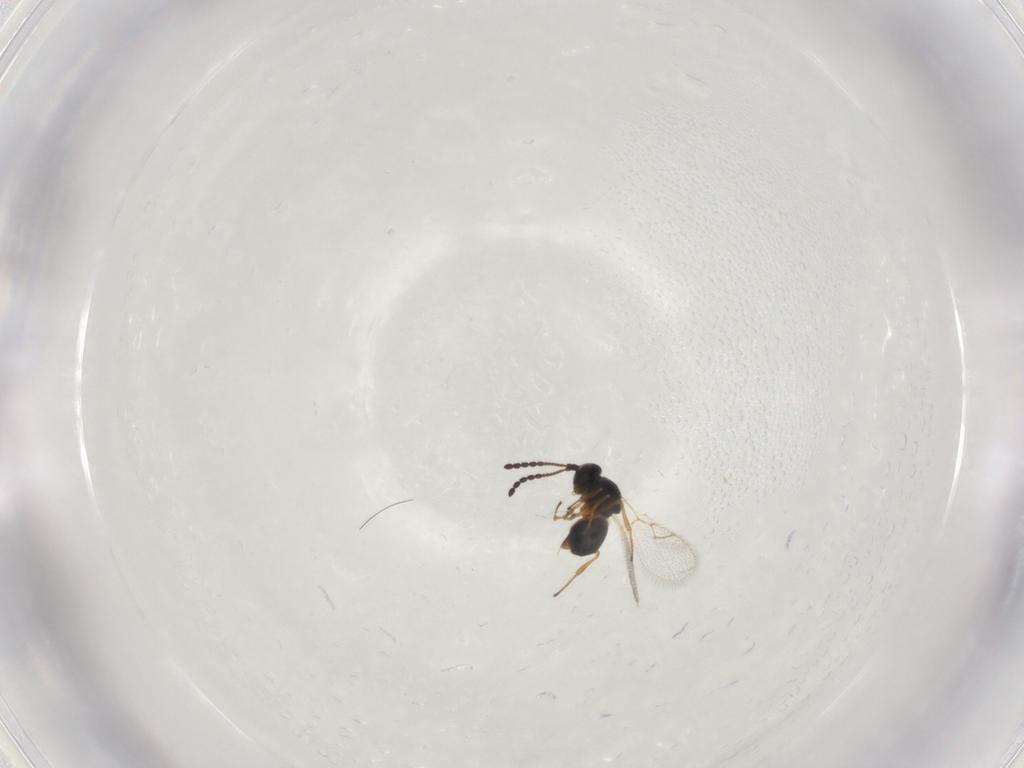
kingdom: Animalia
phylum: Arthropoda
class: Insecta
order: Hymenoptera
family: Figitidae
